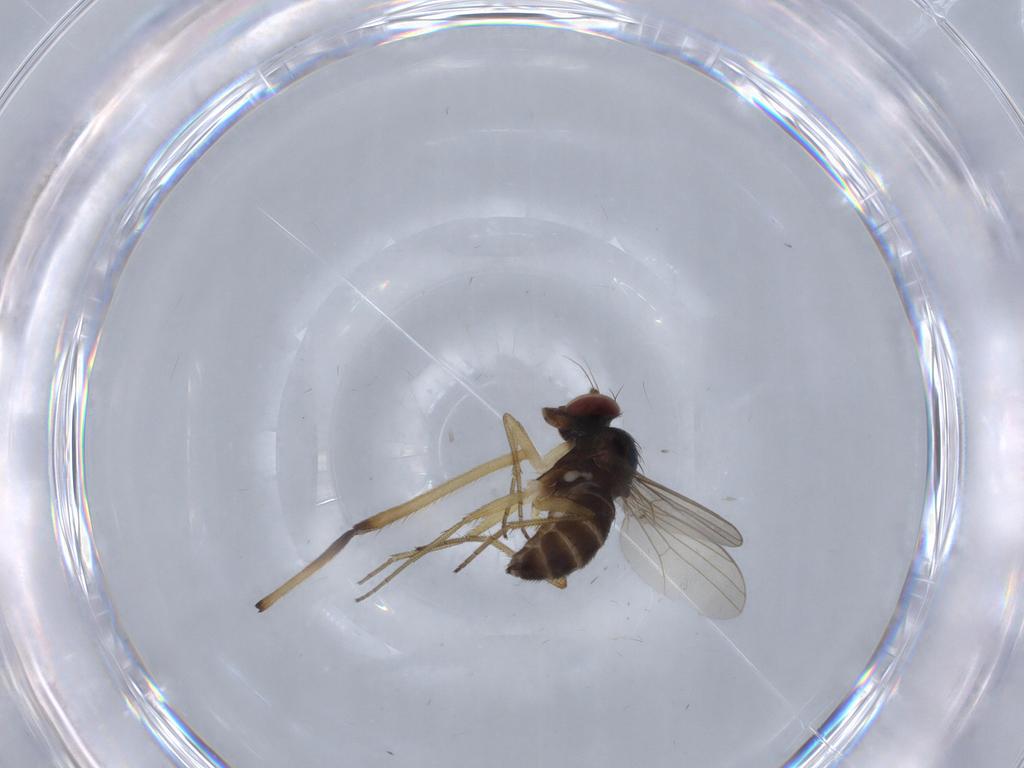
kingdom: Animalia
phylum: Arthropoda
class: Insecta
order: Diptera
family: Dolichopodidae
